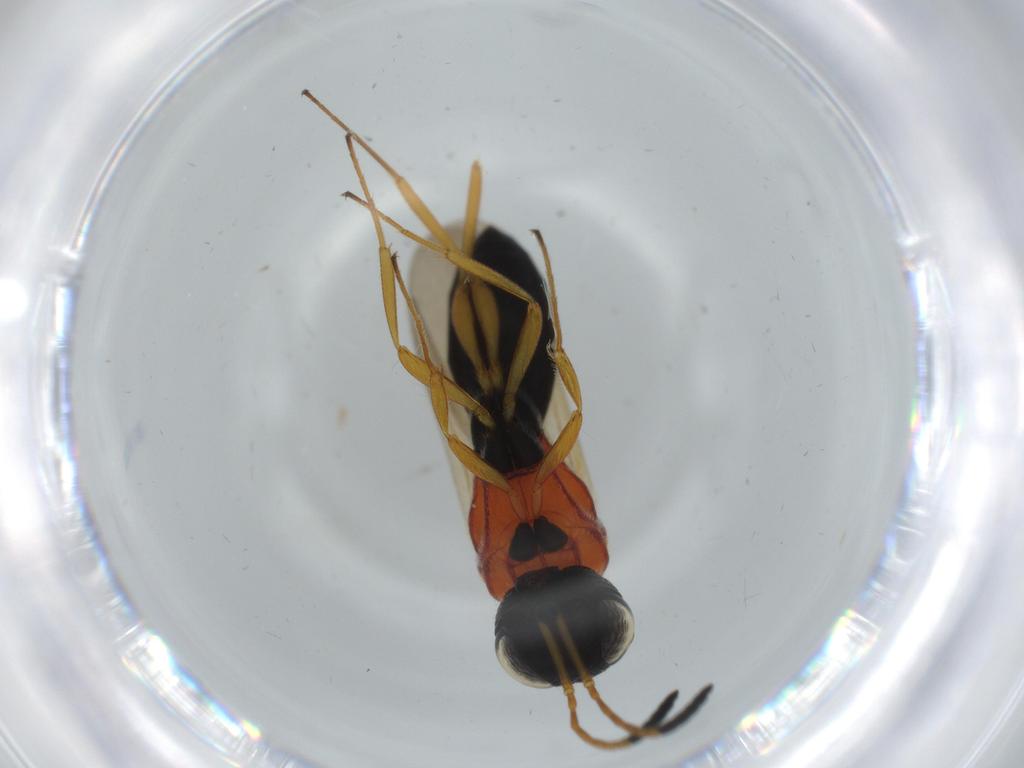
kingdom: Animalia
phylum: Arthropoda
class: Insecta
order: Hymenoptera
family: Scelionidae
